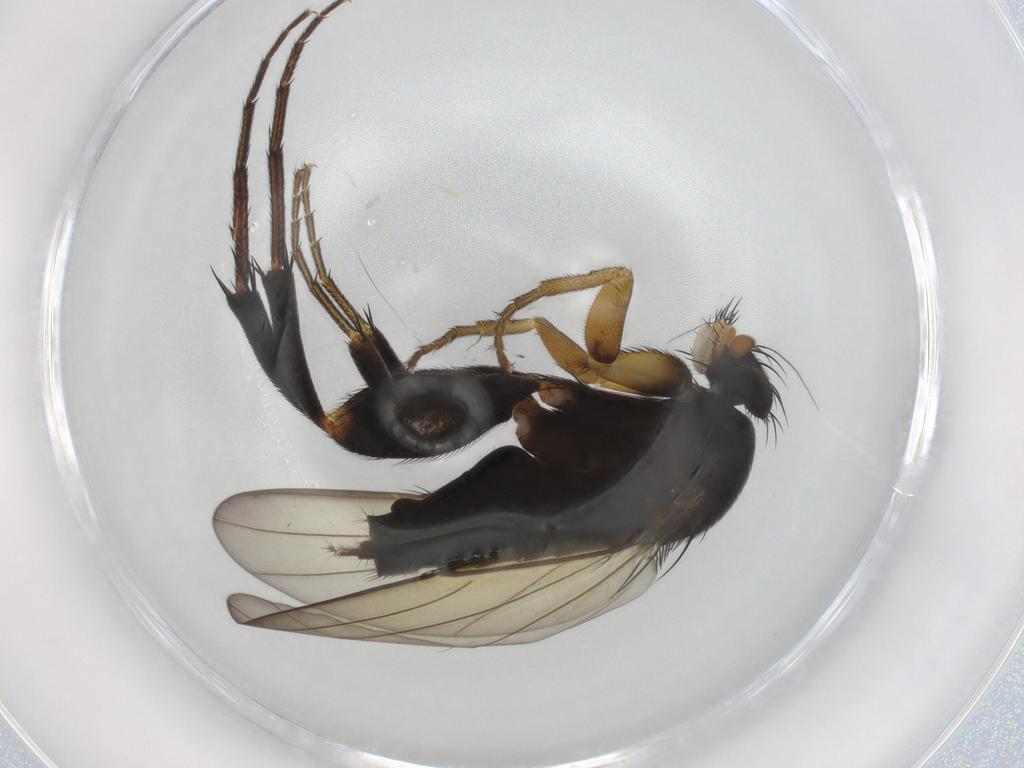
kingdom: Animalia
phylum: Arthropoda
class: Insecta
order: Diptera
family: Phoridae
